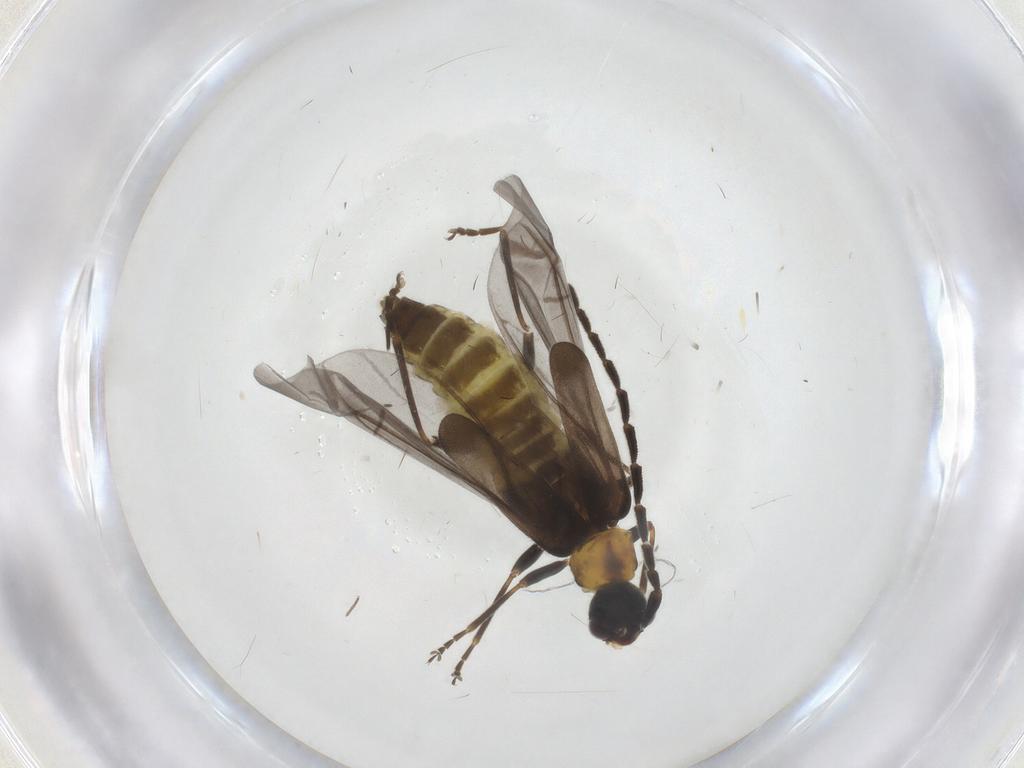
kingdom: Animalia
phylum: Arthropoda
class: Insecta
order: Coleoptera
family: Cantharidae
